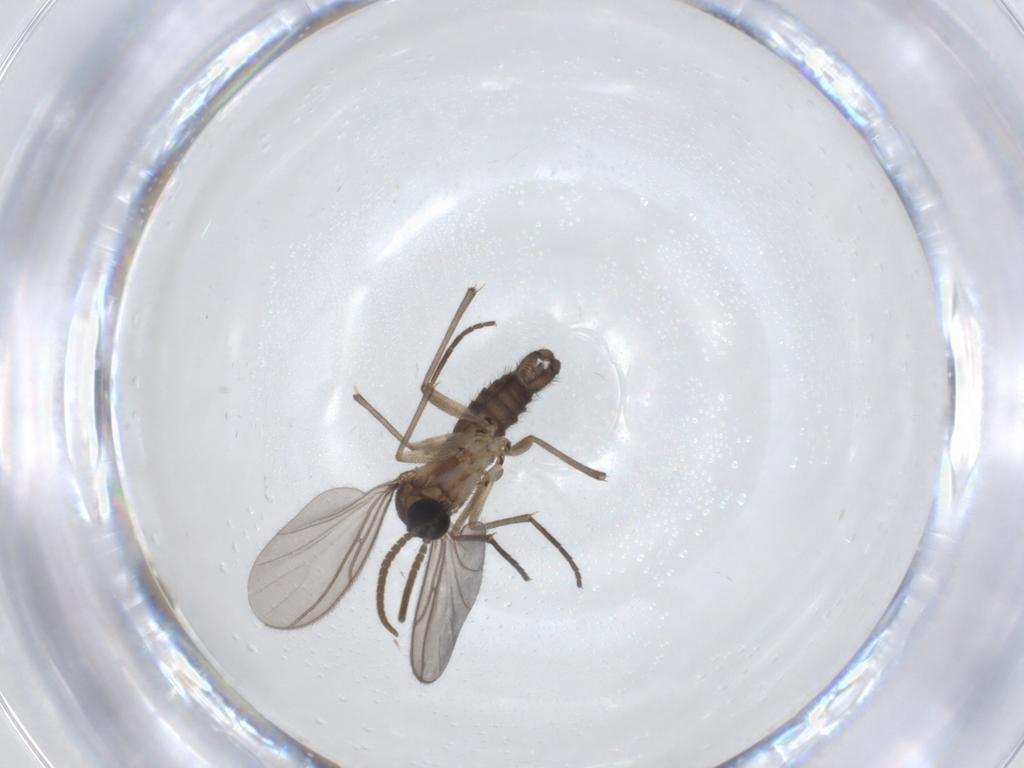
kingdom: Animalia
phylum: Arthropoda
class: Insecta
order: Diptera
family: Limoniidae
